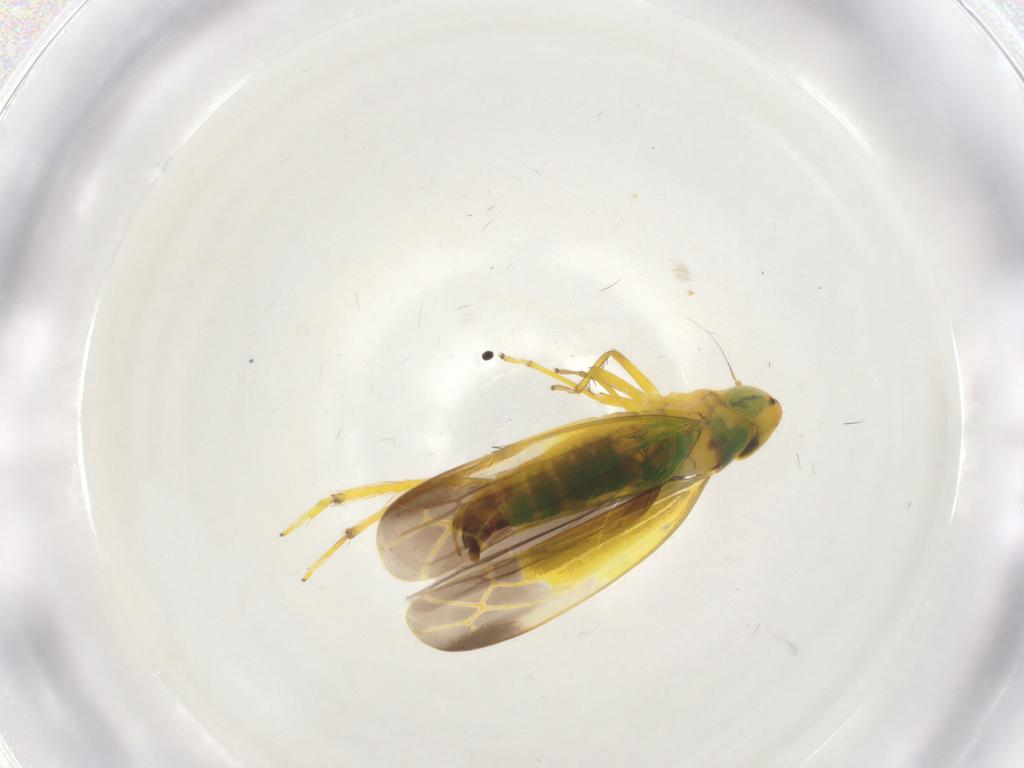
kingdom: Animalia
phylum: Arthropoda
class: Insecta
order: Hemiptera
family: Cicadellidae
